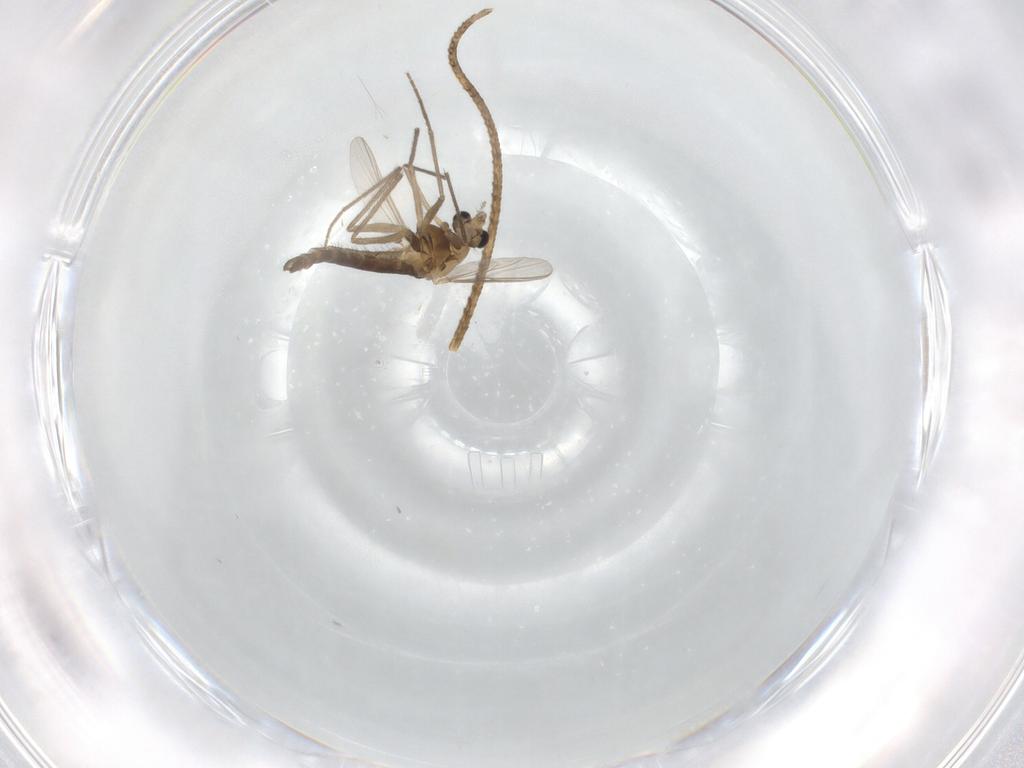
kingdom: Animalia
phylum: Arthropoda
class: Insecta
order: Diptera
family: Chironomidae
